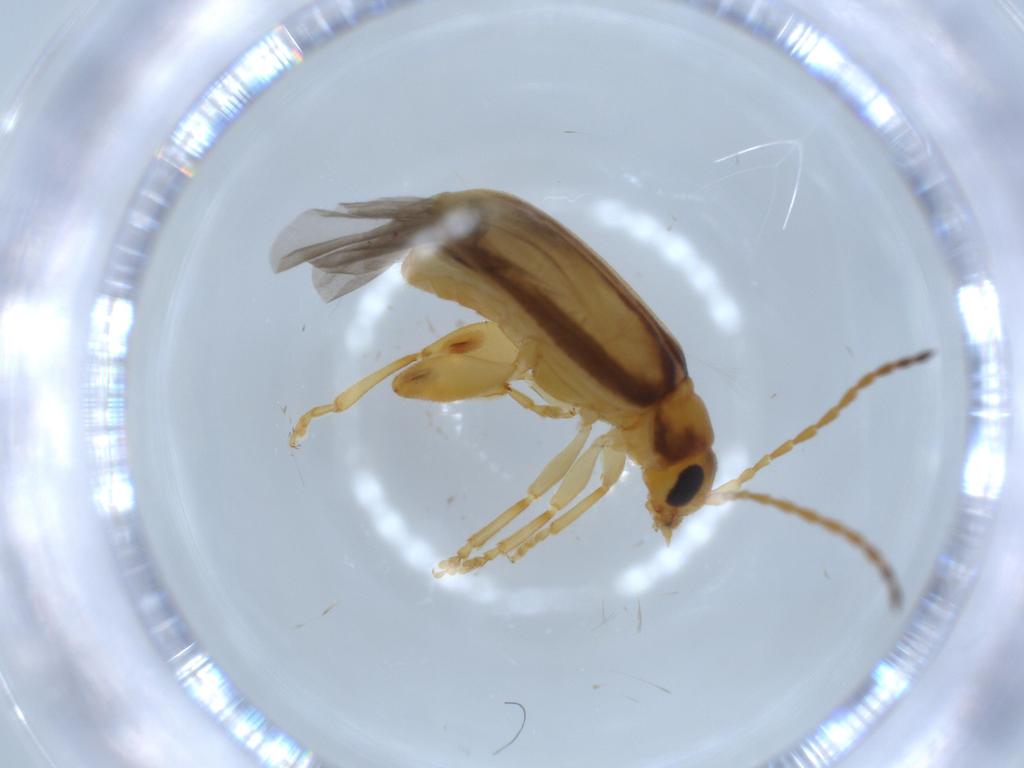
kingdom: Animalia
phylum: Arthropoda
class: Insecta
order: Coleoptera
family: Chrysomelidae
